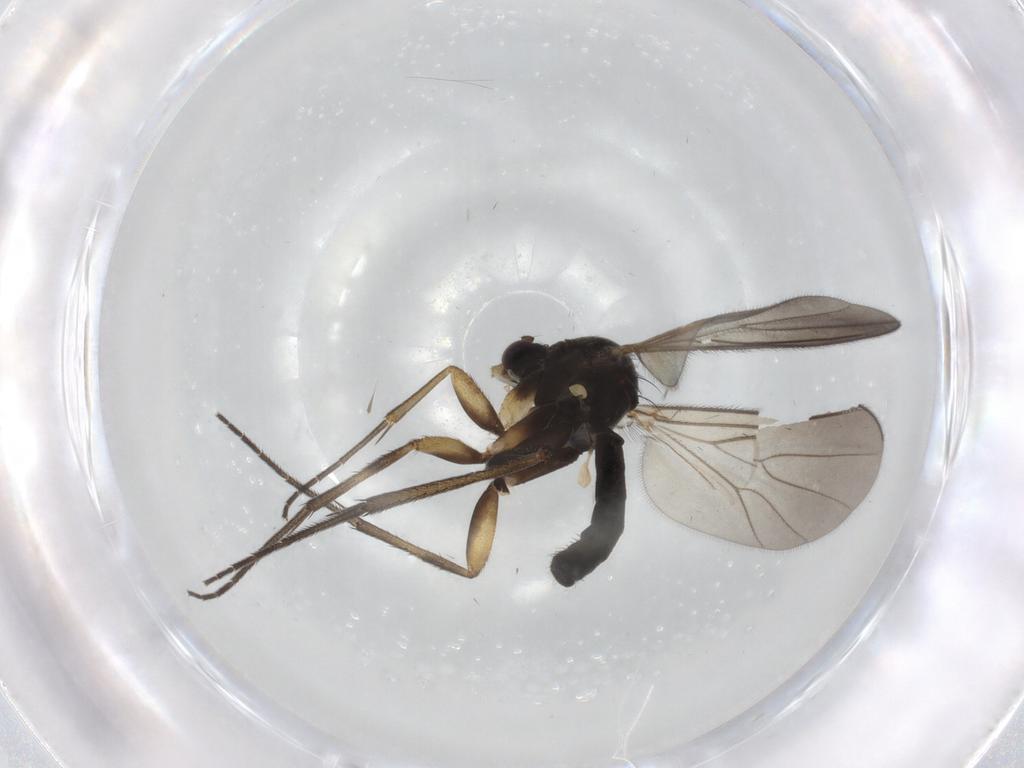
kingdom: Animalia
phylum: Arthropoda
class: Insecta
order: Diptera
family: Mycetophilidae
